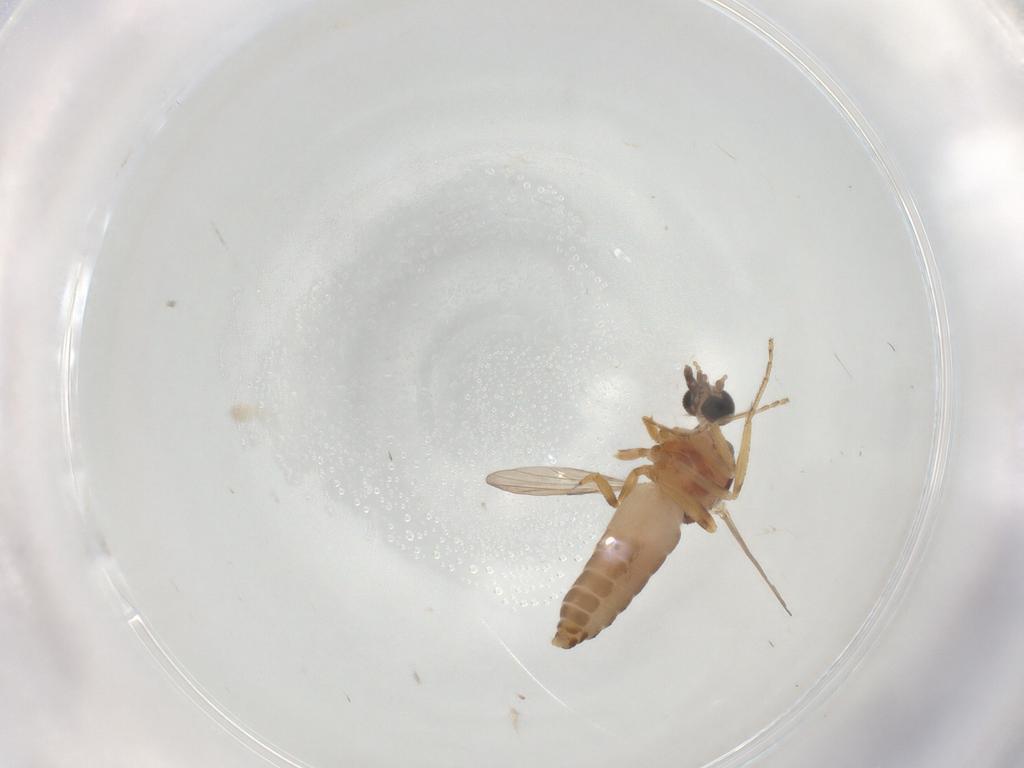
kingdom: Animalia
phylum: Arthropoda
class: Insecta
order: Diptera
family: Chironomidae
